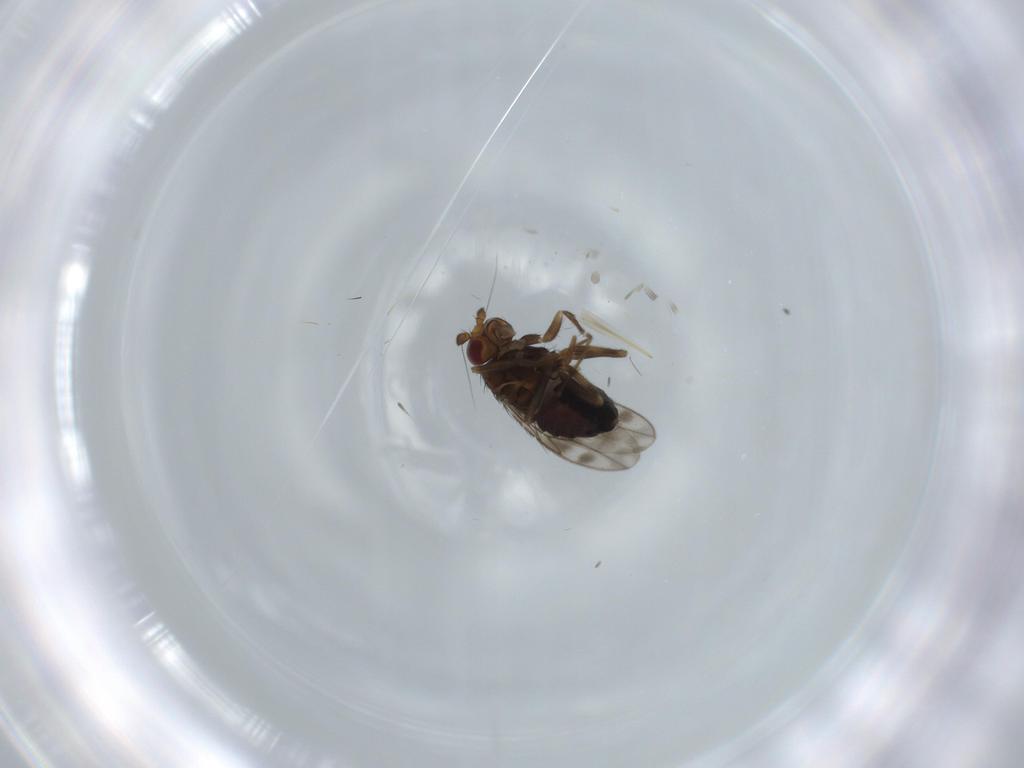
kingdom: Animalia
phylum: Arthropoda
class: Insecta
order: Diptera
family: Sphaeroceridae
